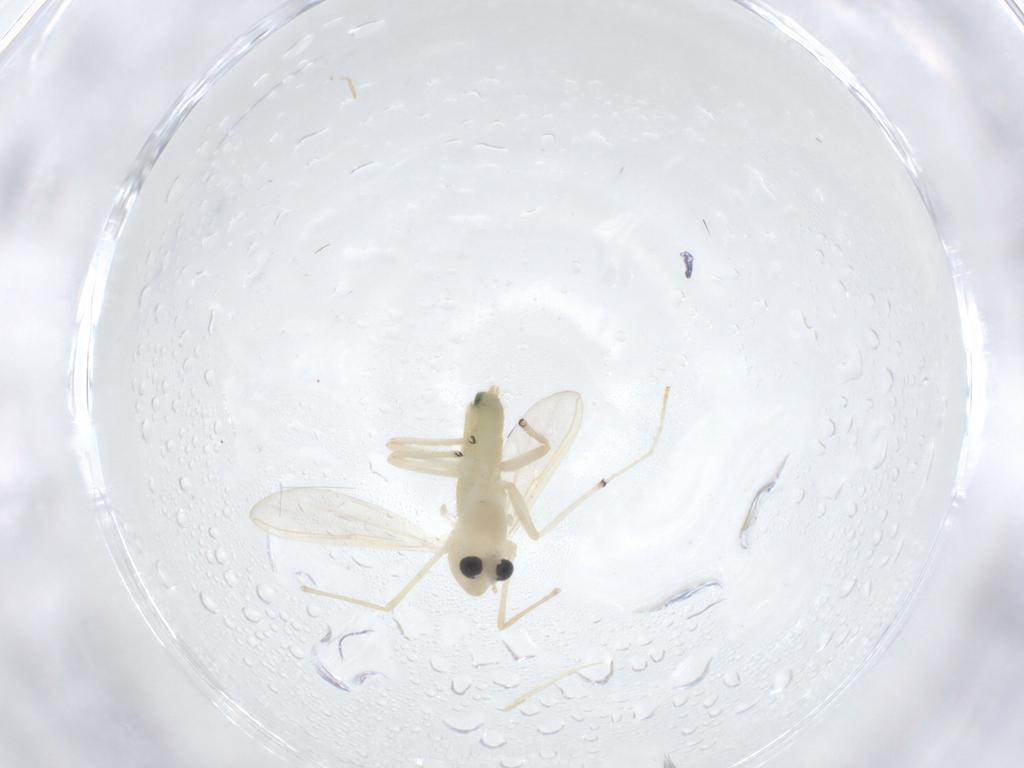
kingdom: Animalia
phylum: Arthropoda
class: Insecta
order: Diptera
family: Chironomidae
